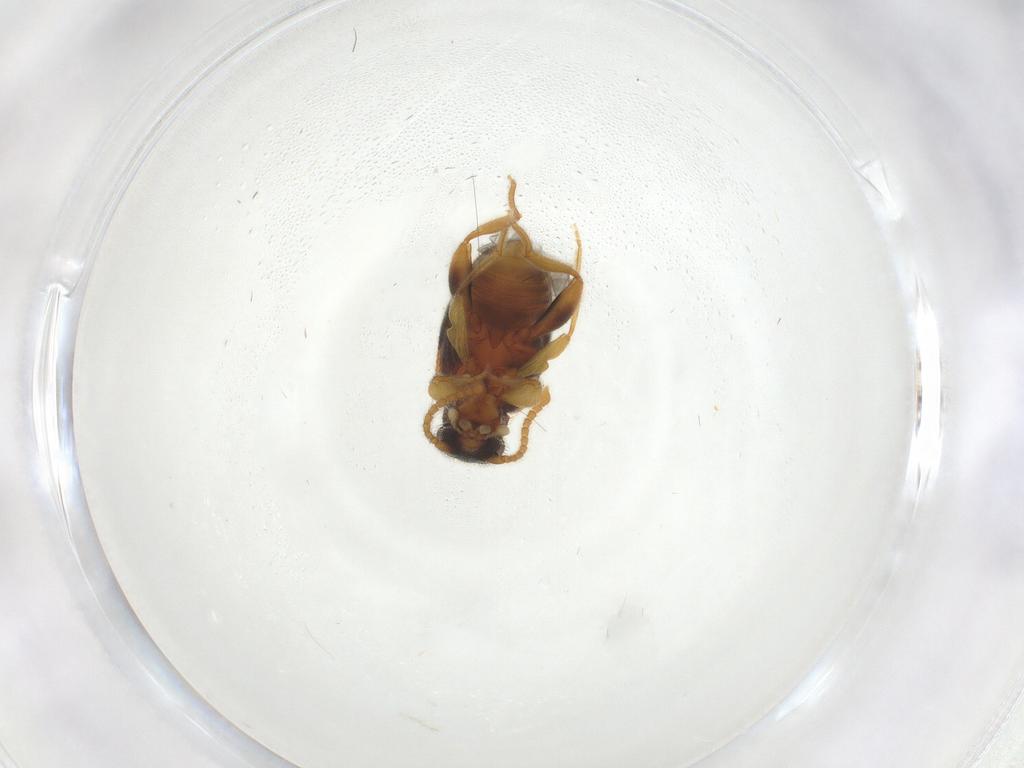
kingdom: Animalia
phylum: Arthropoda
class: Insecta
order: Coleoptera
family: Aderidae
